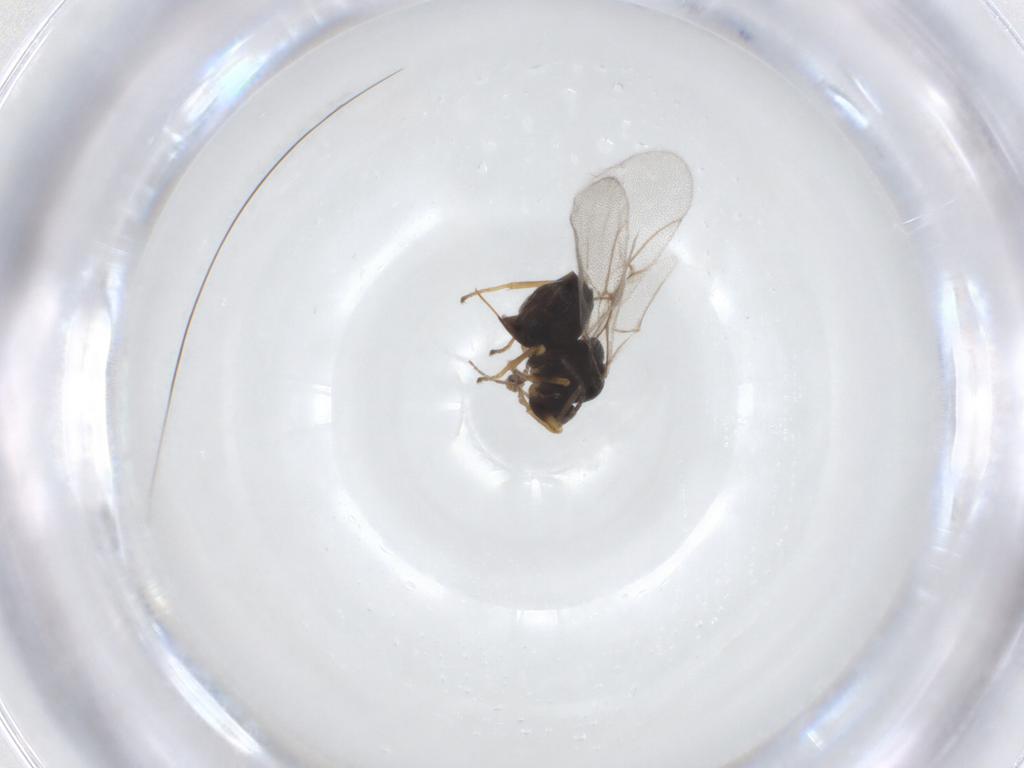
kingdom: Animalia
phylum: Arthropoda
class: Insecta
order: Hymenoptera
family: Cynipidae
